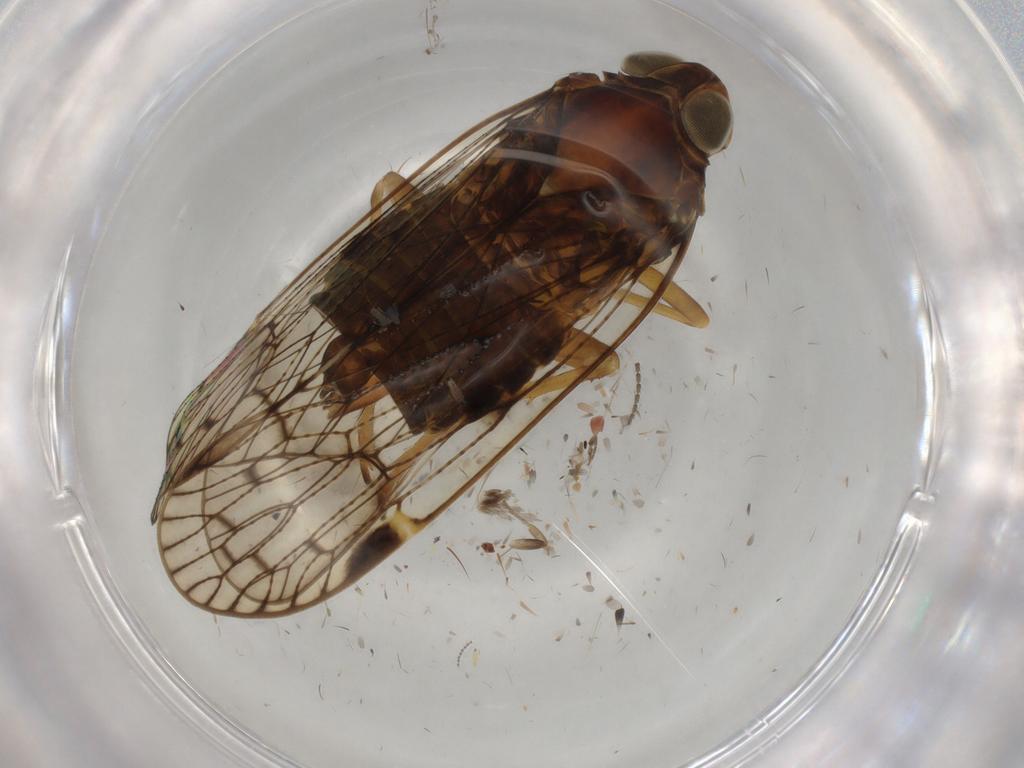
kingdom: Animalia
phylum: Arthropoda
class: Insecta
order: Hemiptera
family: Cixiidae
